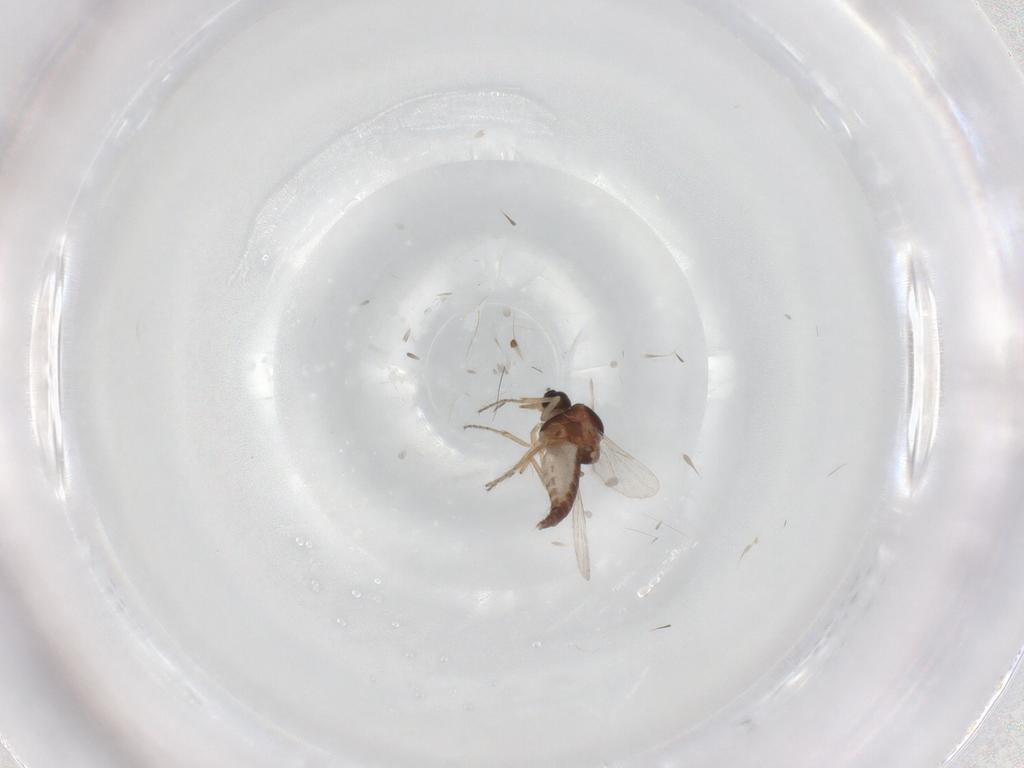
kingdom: Animalia
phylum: Arthropoda
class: Insecta
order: Diptera
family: Ceratopogonidae
